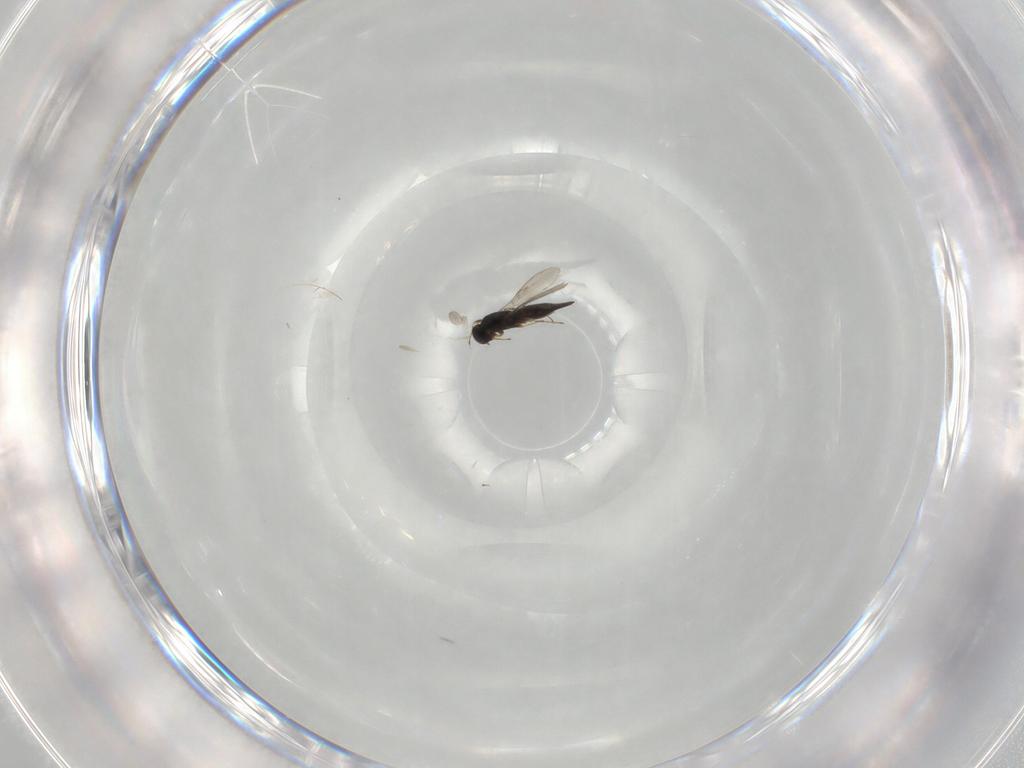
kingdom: Animalia
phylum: Arthropoda
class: Insecta
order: Hymenoptera
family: Scelionidae
